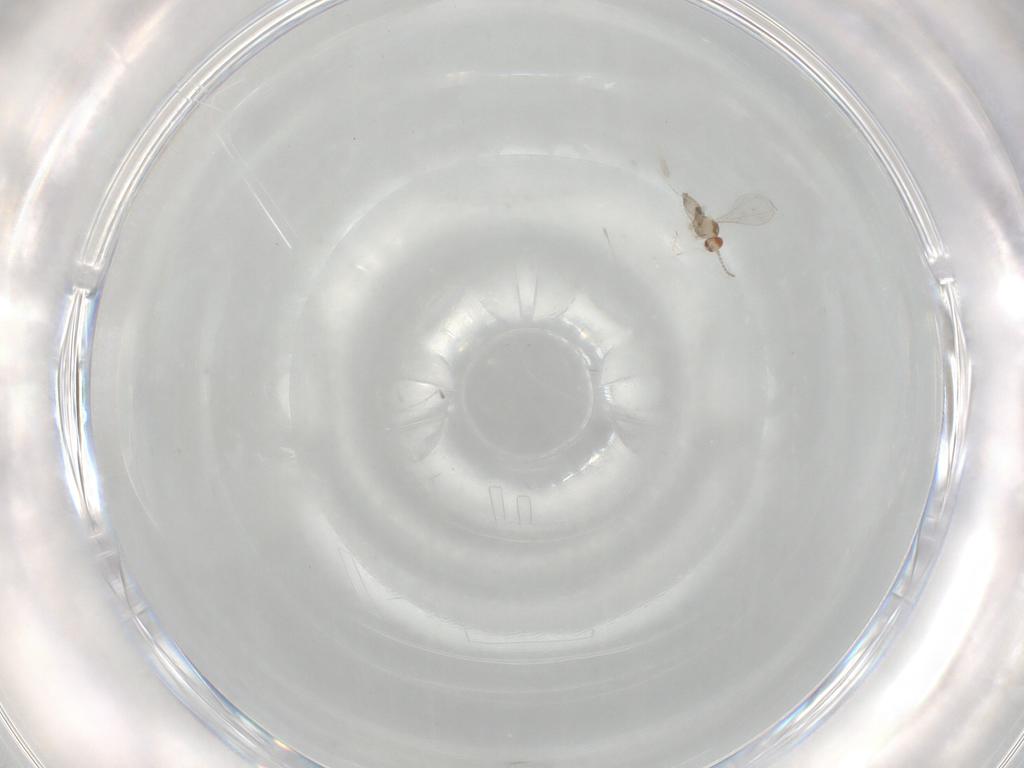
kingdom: Animalia
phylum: Arthropoda
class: Insecta
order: Diptera
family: Cecidomyiidae
